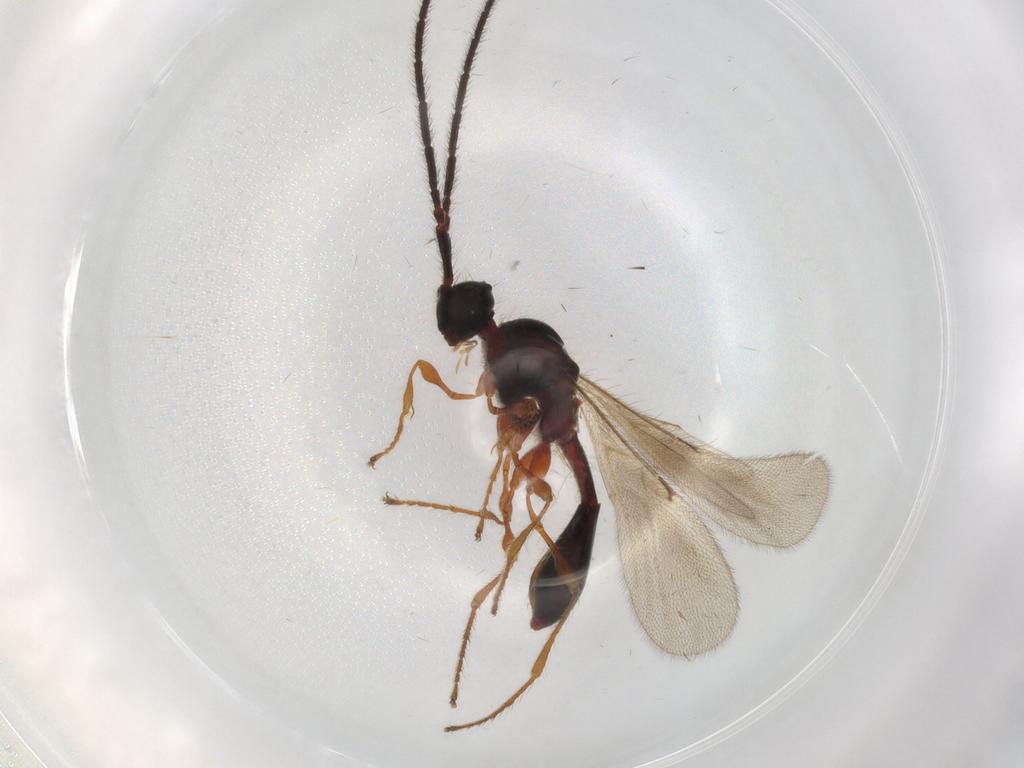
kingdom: Animalia
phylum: Arthropoda
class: Insecta
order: Hymenoptera
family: Diapriidae
